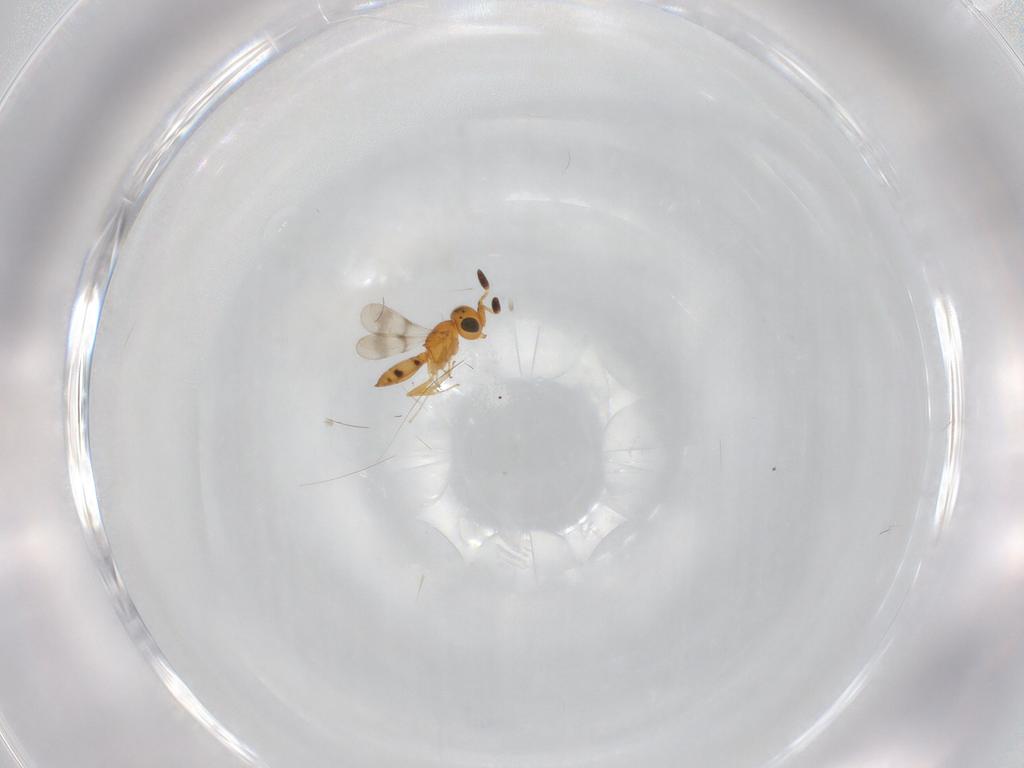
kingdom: Animalia
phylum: Arthropoda
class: Insecta
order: Hymenoptera
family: Scelionidae
